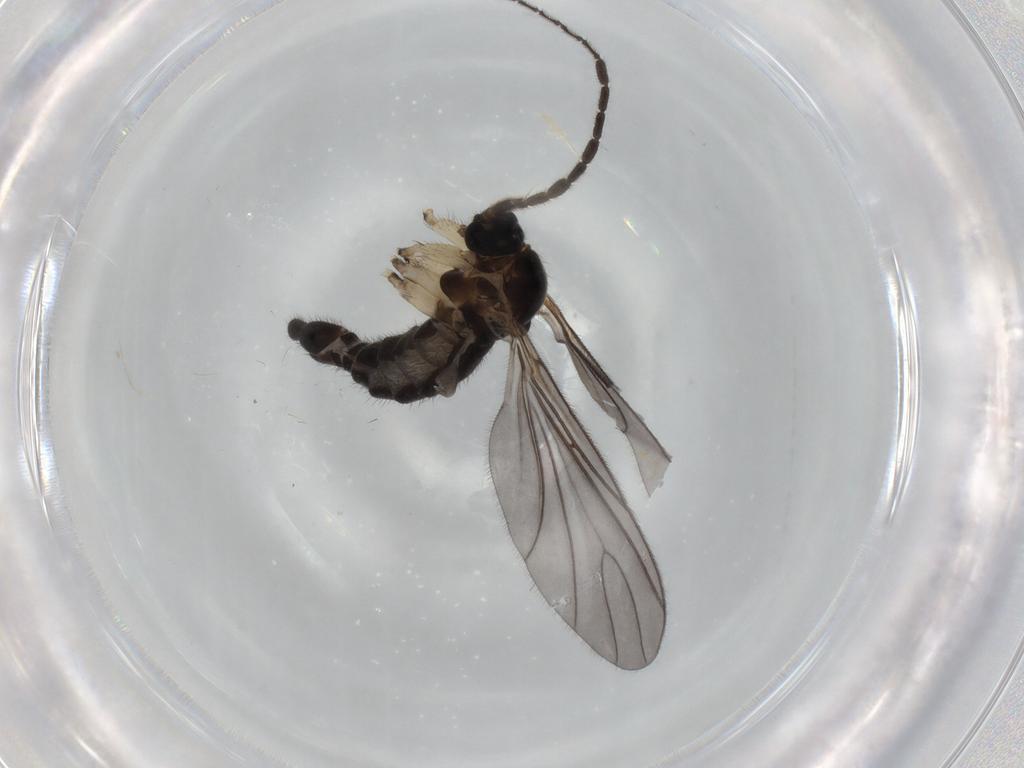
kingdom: Animalia
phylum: Arthropoda
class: Insecta
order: Diptera
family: Sciaridae
